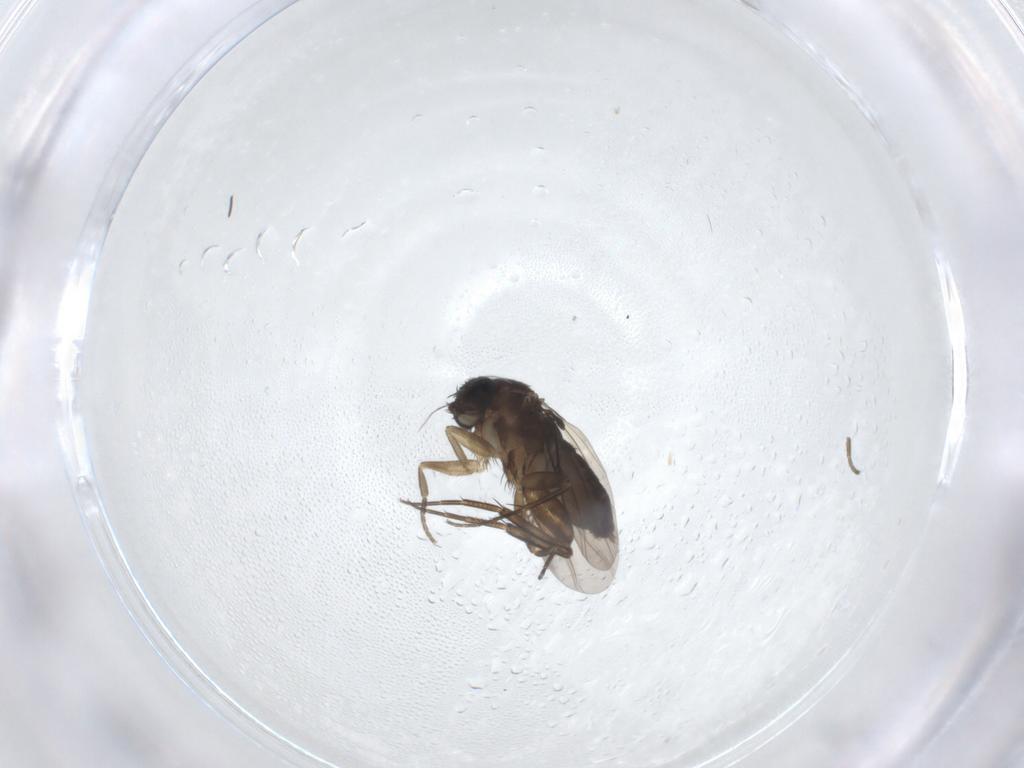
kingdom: Animalia
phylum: Arthropoda
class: Insecta
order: Diptera
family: Phoridae
